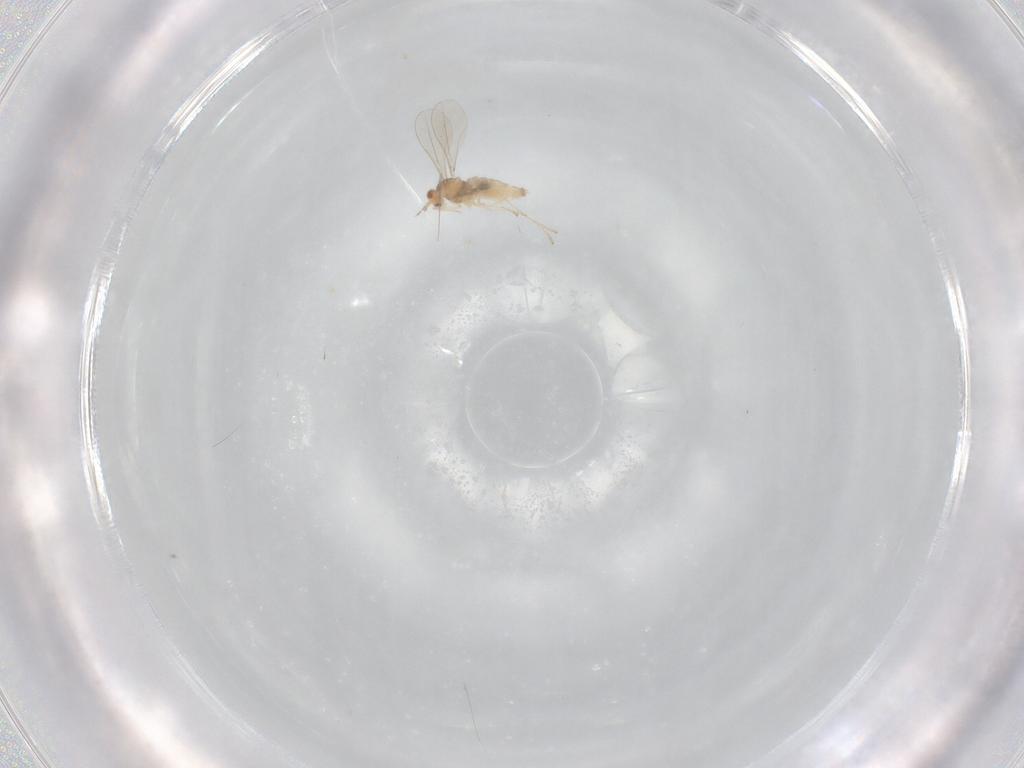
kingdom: Animalia
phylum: Arthropoda
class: Insecta
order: Diptera
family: Cecidomyiidae
